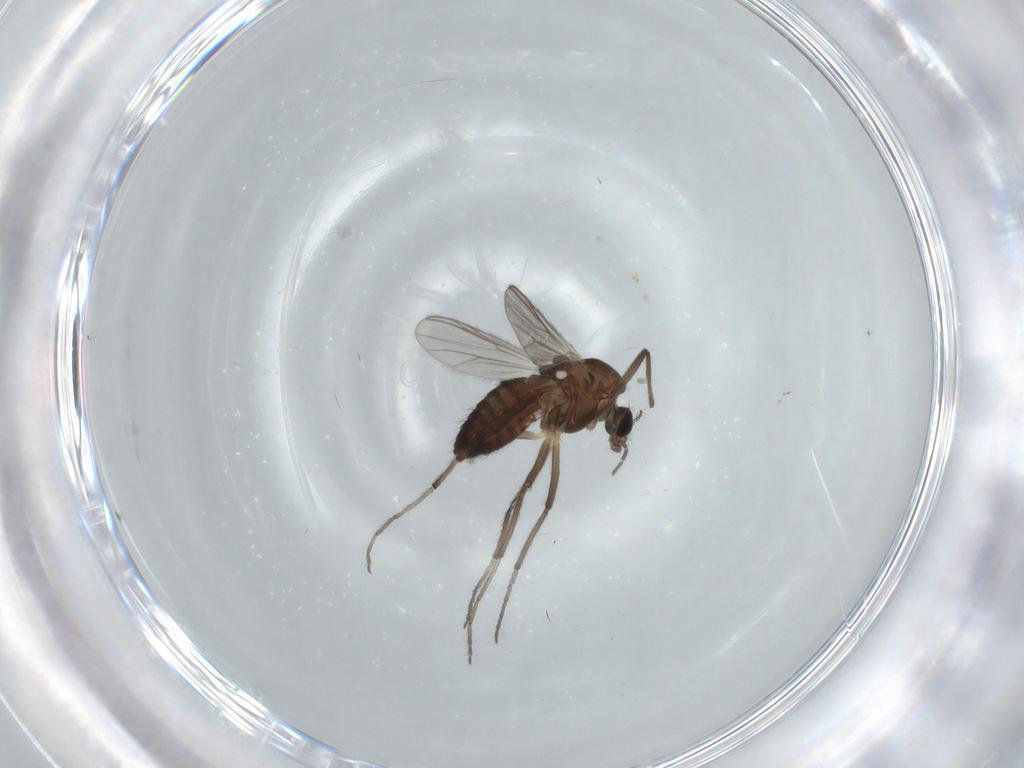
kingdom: Animalia
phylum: Arthropoda
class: Insecta
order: Diptera
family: Chironomidae
